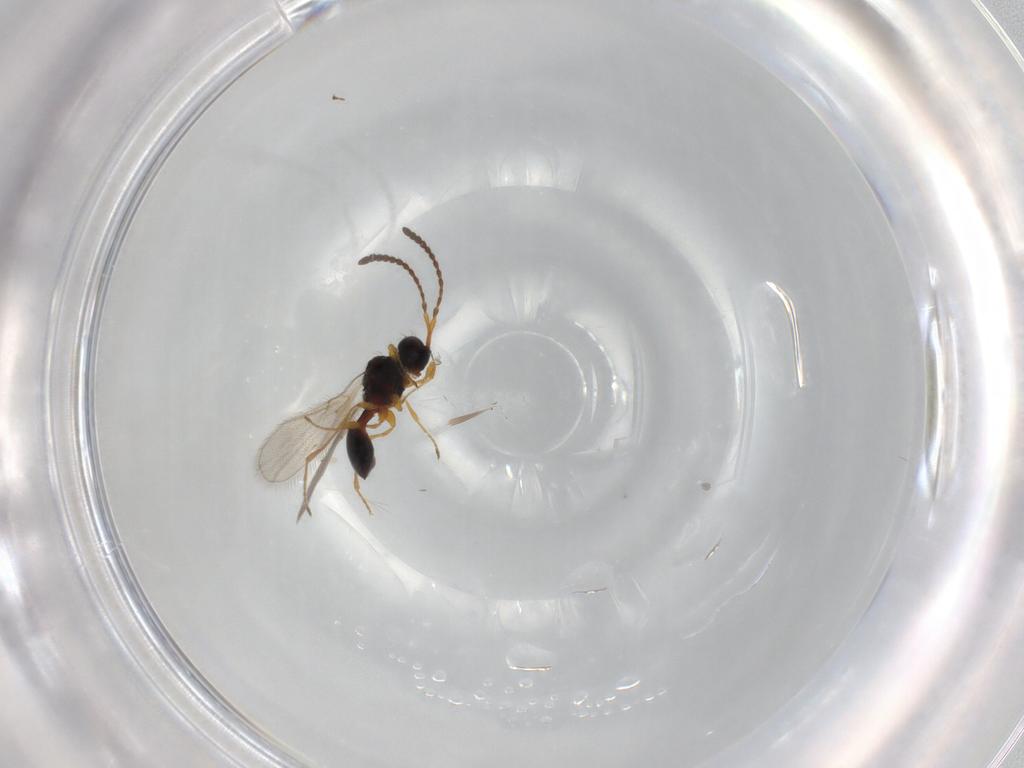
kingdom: Animalia
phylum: Arthropoda
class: Insecta
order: Hymenoptera
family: Diapriidae
